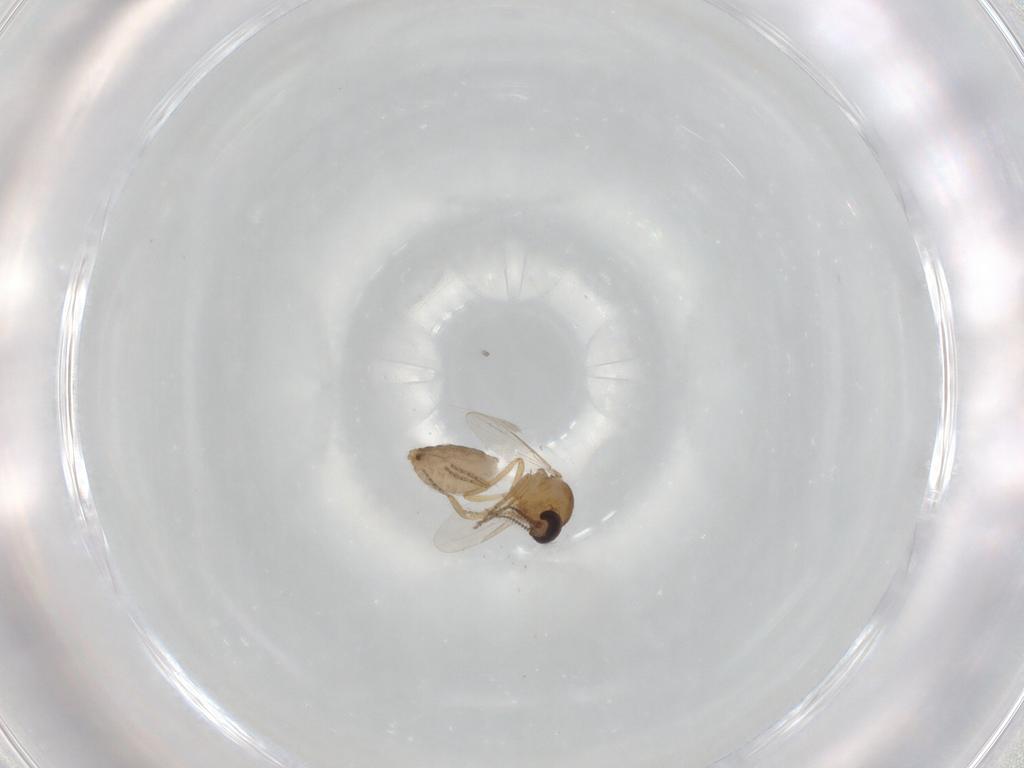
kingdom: Animalia
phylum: Arthropoda
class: Insecta
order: Diptera
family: Ceratopogonidae
